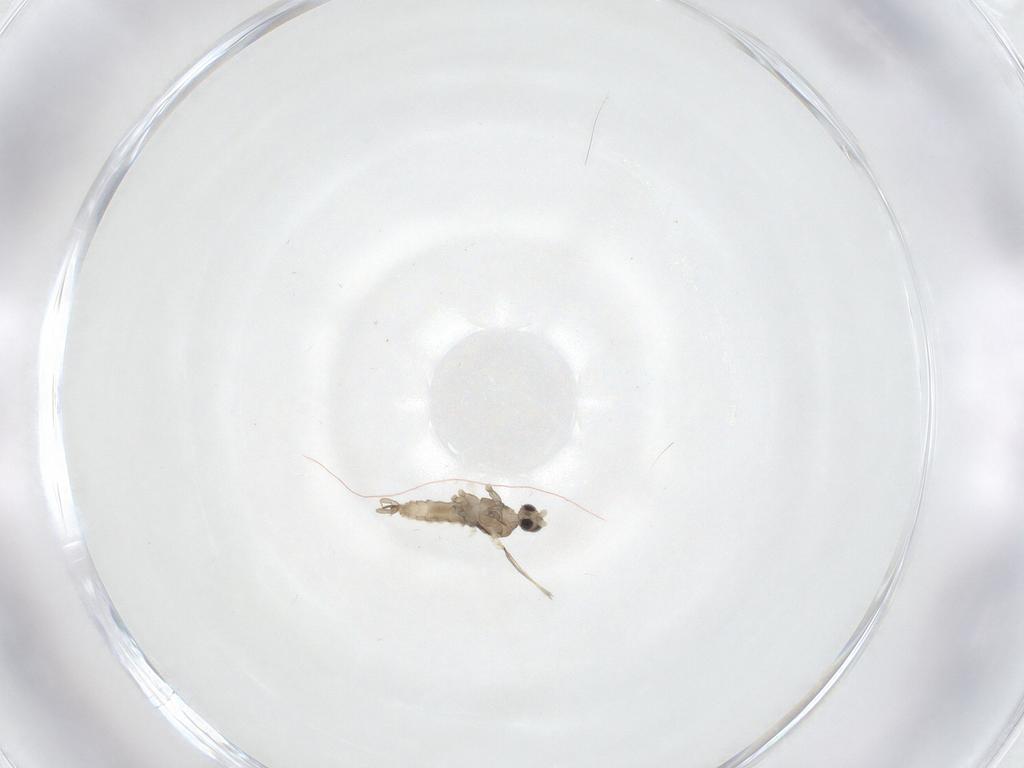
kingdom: Animalia
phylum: Arthropoda
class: Insecta
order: Diptera
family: Cecidomyiidae
